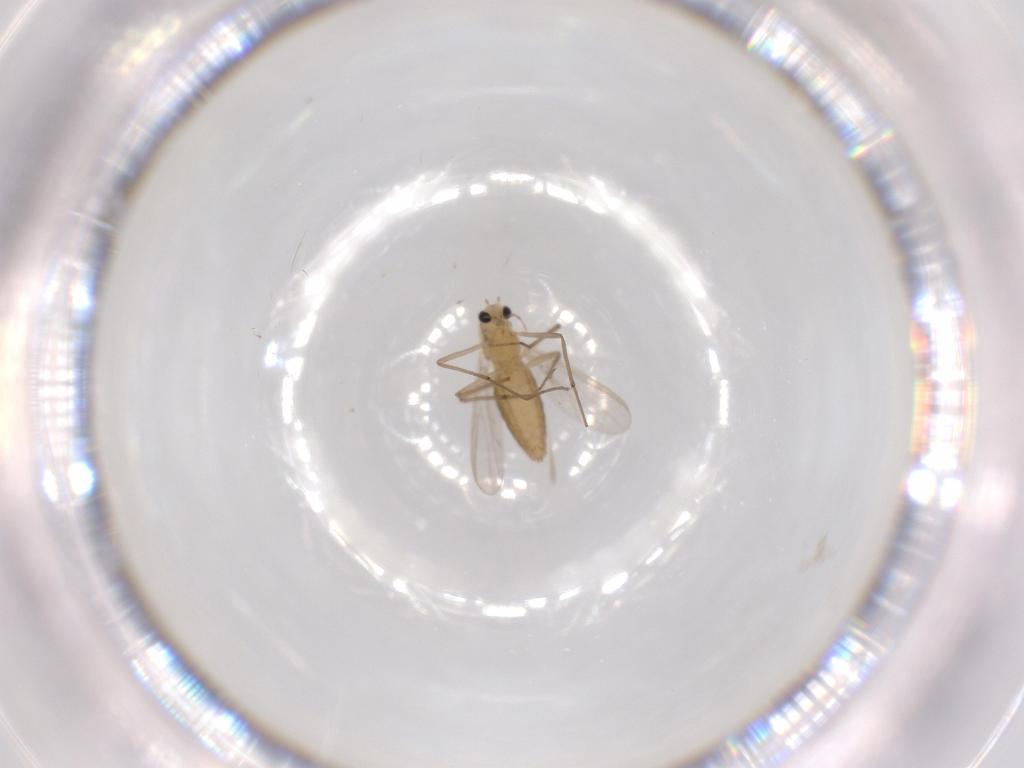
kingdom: Animalia
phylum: Arthropoda
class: Insecta
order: Diptera
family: Chironomidae
